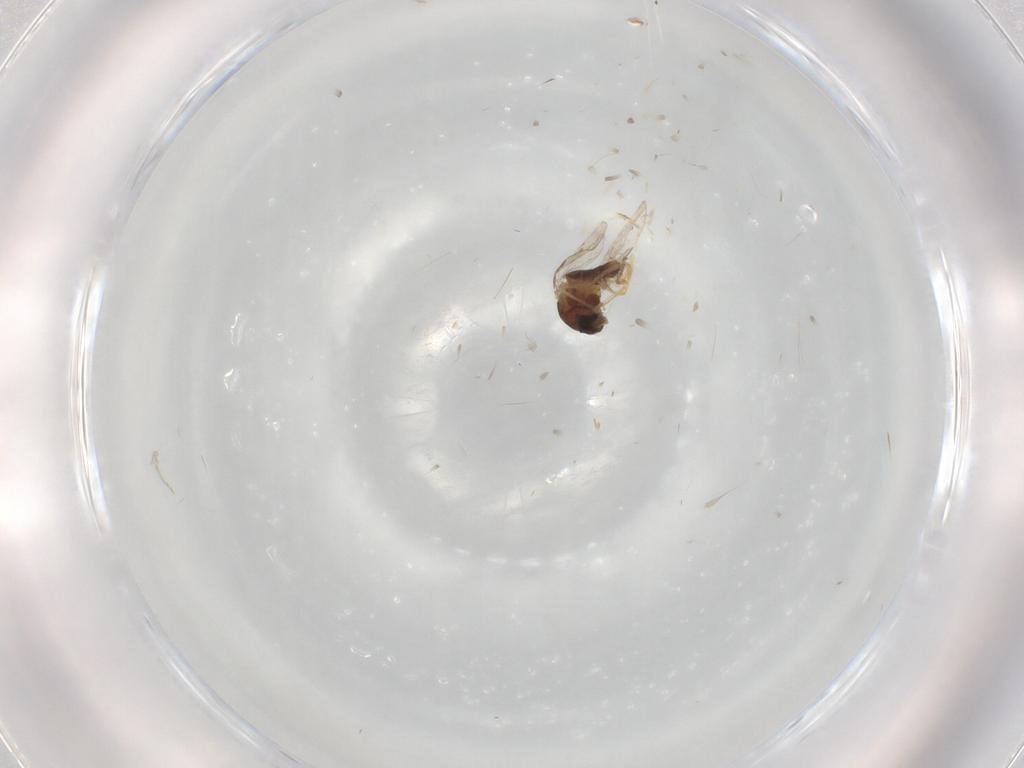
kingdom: Animalia
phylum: Arthropoda
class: Insecta
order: Diptera
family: Ceratopogonidae
